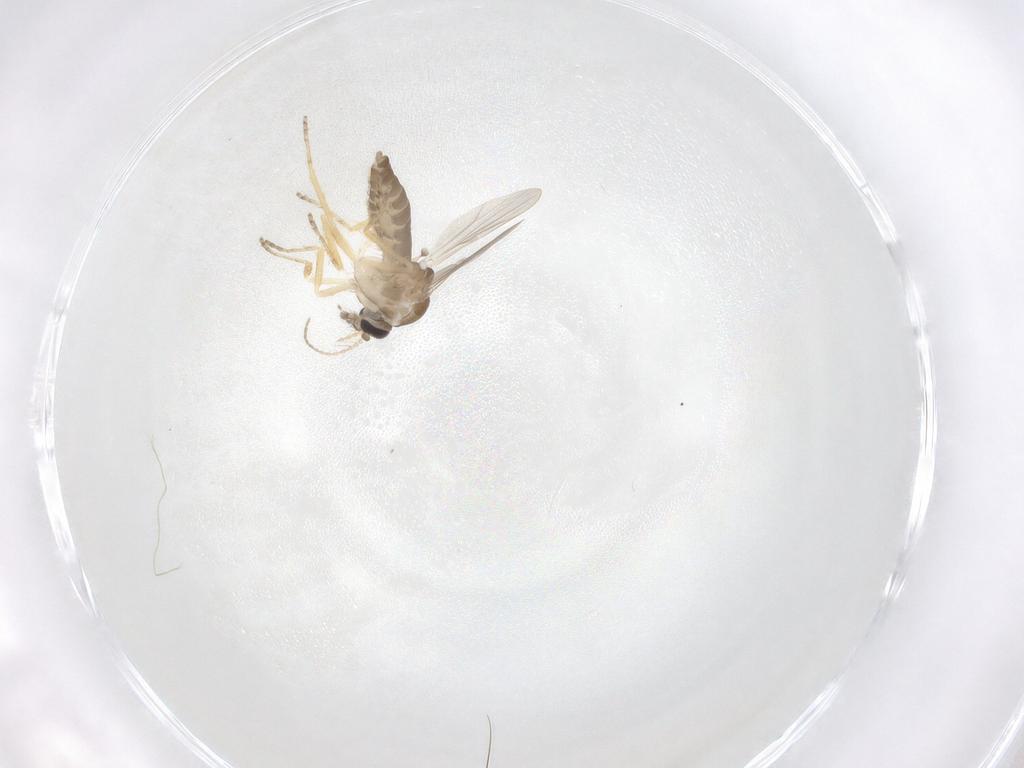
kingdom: Animalia
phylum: Arthropoda
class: Insecta
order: Diptera
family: Ceratopogonidae
